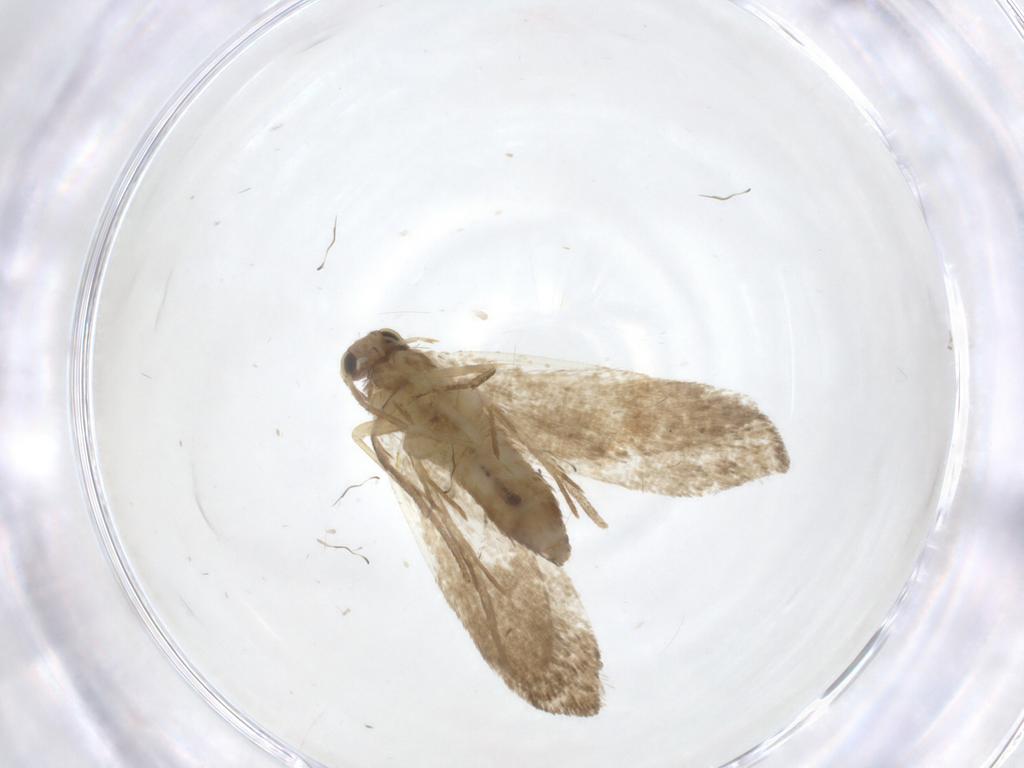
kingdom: Animalia
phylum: Arthropoda
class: Insecta
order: Lepidoptera
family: Tineidae
